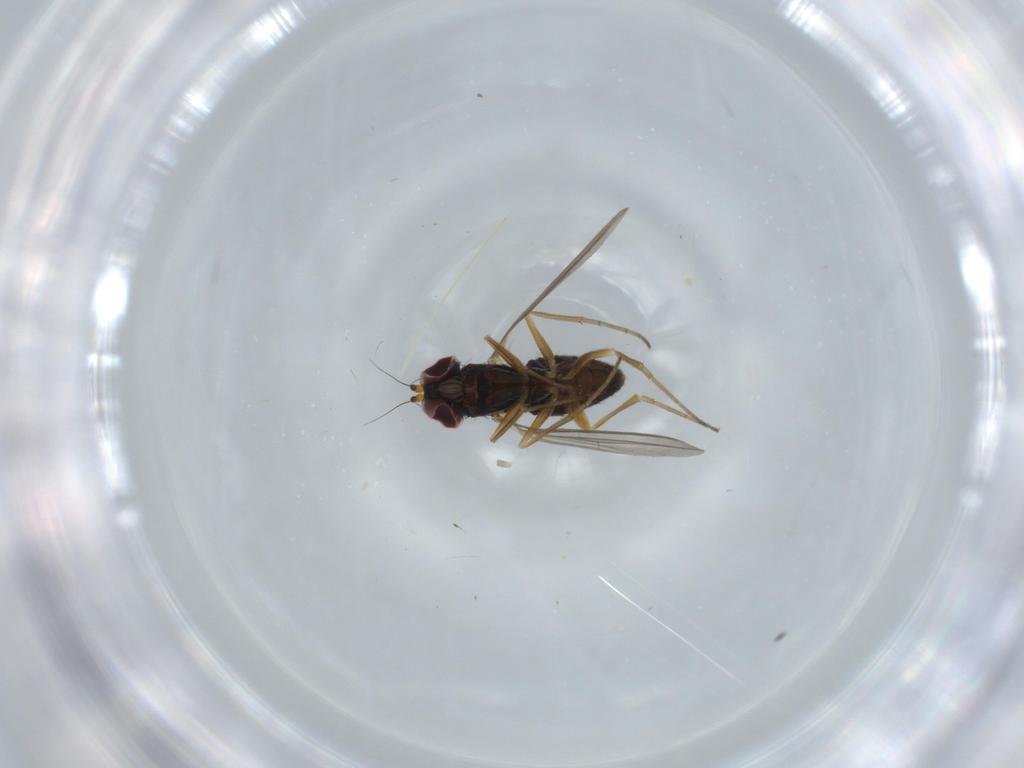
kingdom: Animalia
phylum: Arthropoda
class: Insecta
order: Diptera
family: Dolichopodidae
